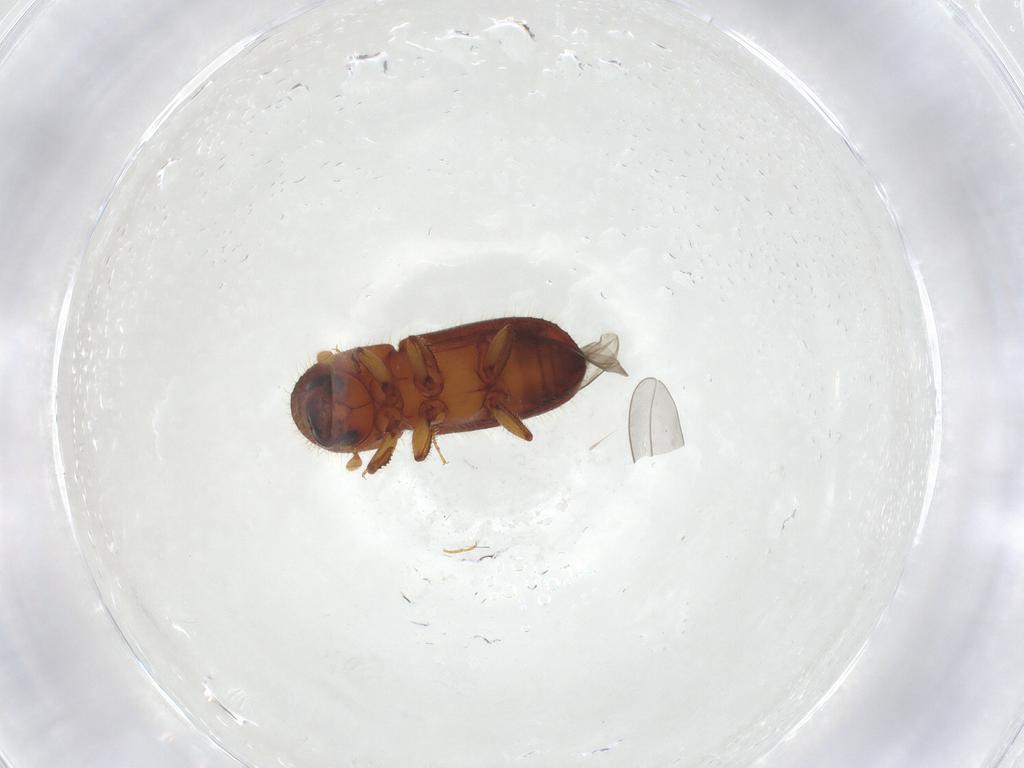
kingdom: Animalia
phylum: Arthropoda
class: Insecta
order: Coleoptera
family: Curculionidae
